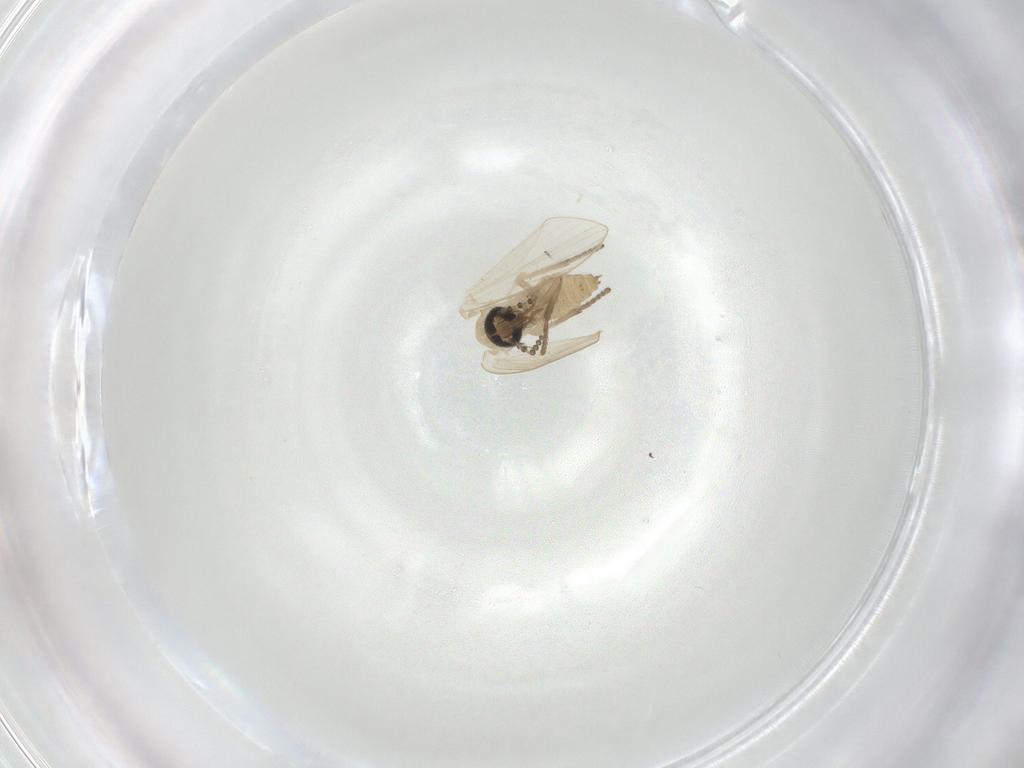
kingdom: Animalia
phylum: Arthropoda
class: Insecta
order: Diptera
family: Psychodidae
